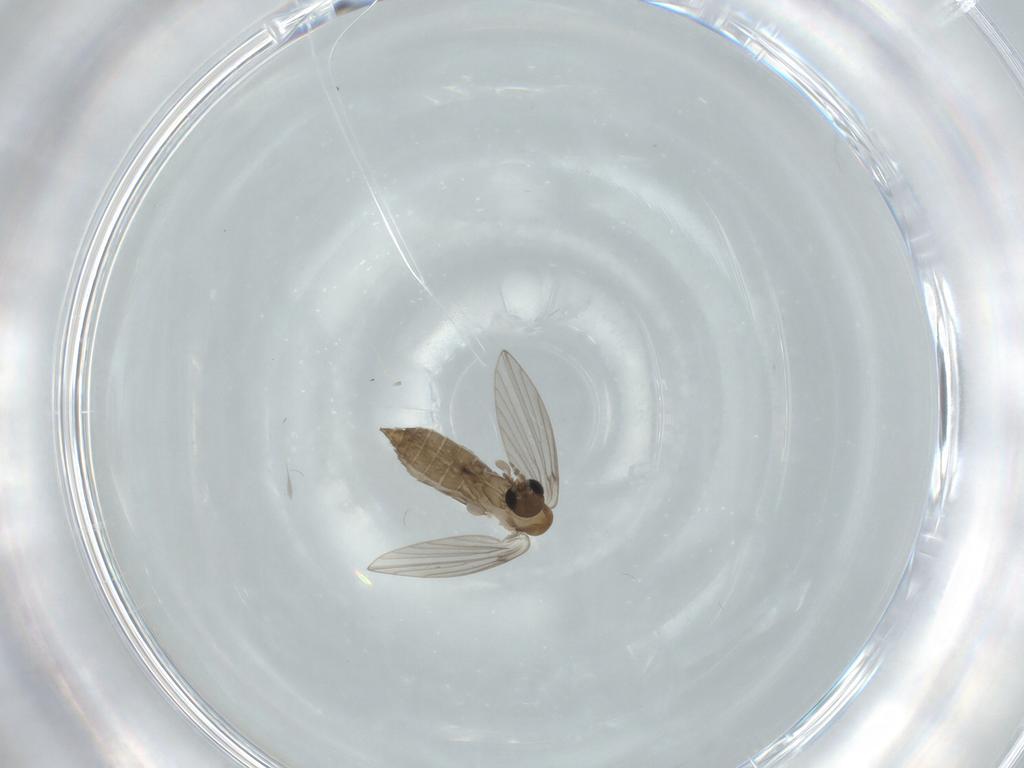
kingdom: Animalia
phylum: Arthropoda
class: Insecta
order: Diptera
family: Psychodidae
